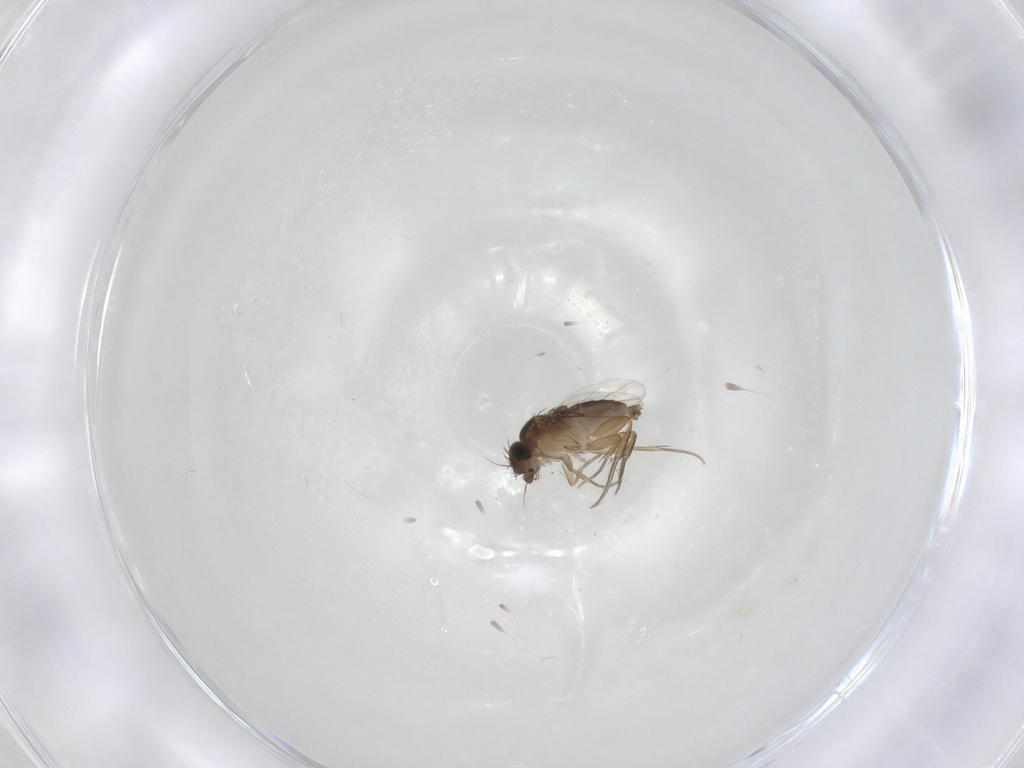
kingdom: Animalia
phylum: Arthropoda
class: Insecta
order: Diptera
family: Phoridae
